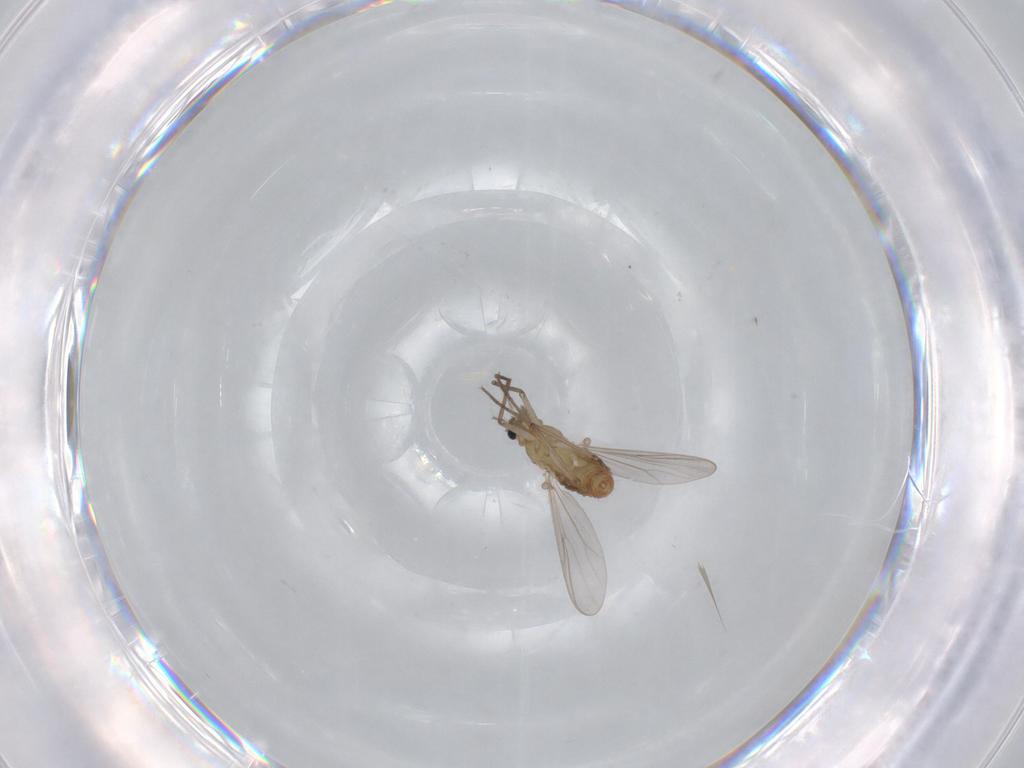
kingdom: Animalia
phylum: Arthropoda
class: Insecta
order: Diptera
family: Chironomidae
